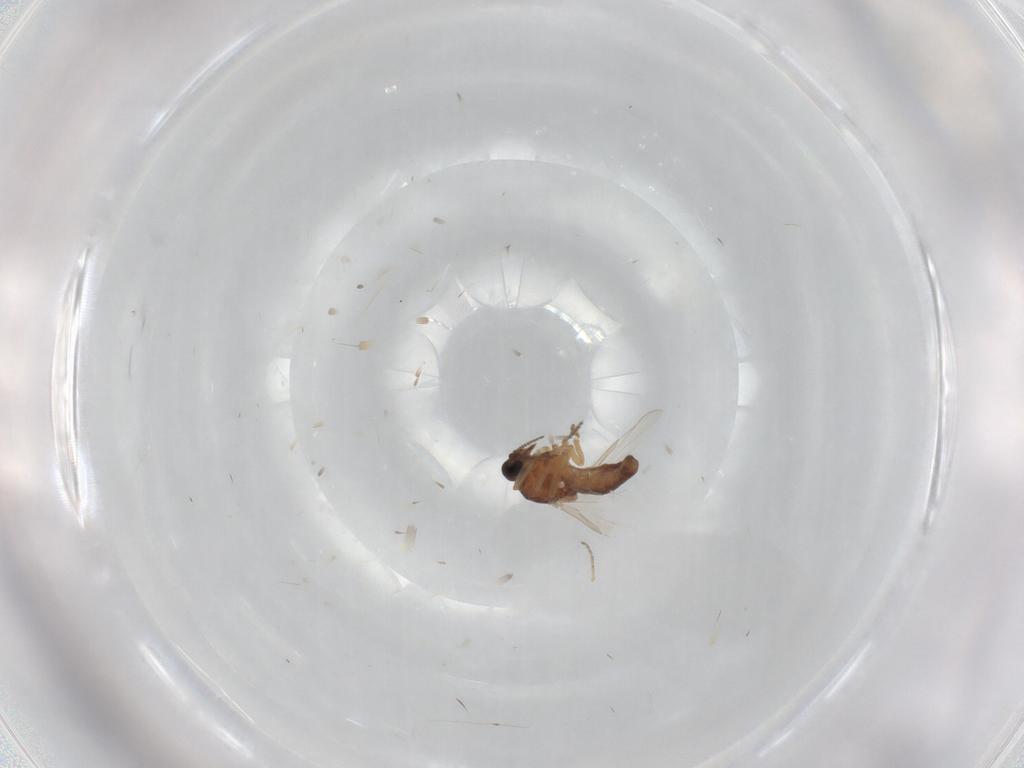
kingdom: Animalia
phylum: Arthropoda
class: Insecta
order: Diptera
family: Ceratopogonidae
